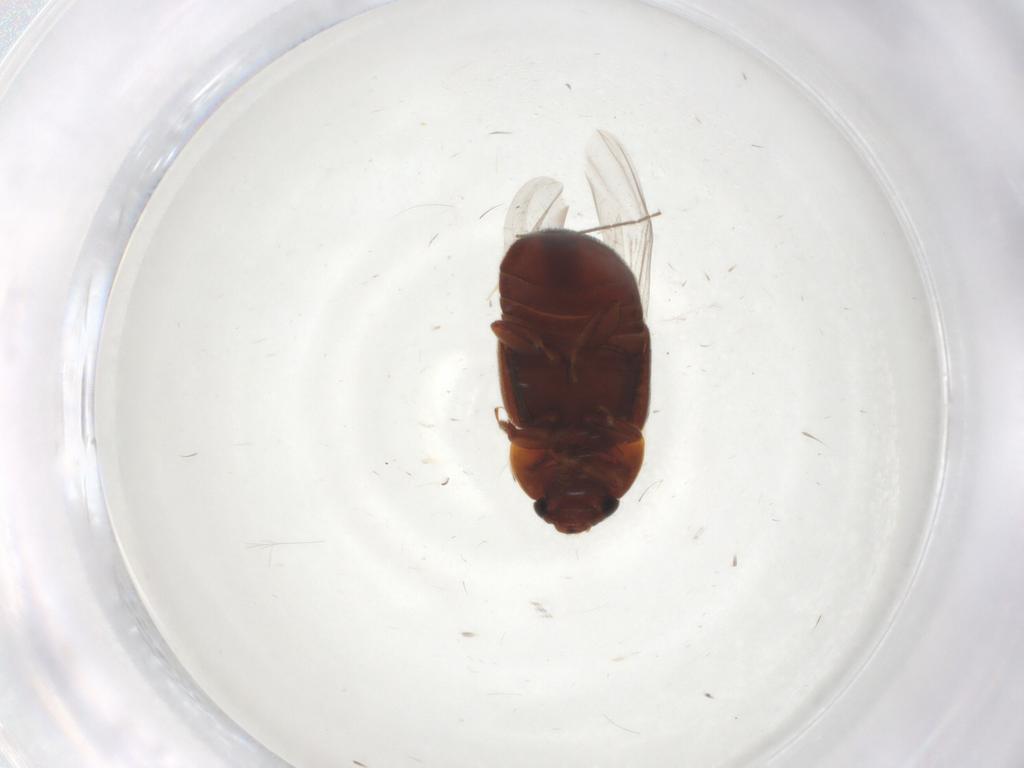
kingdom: Animalia
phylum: Arthropoda
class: Insecta
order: Coleoptera
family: Nitidulidae
